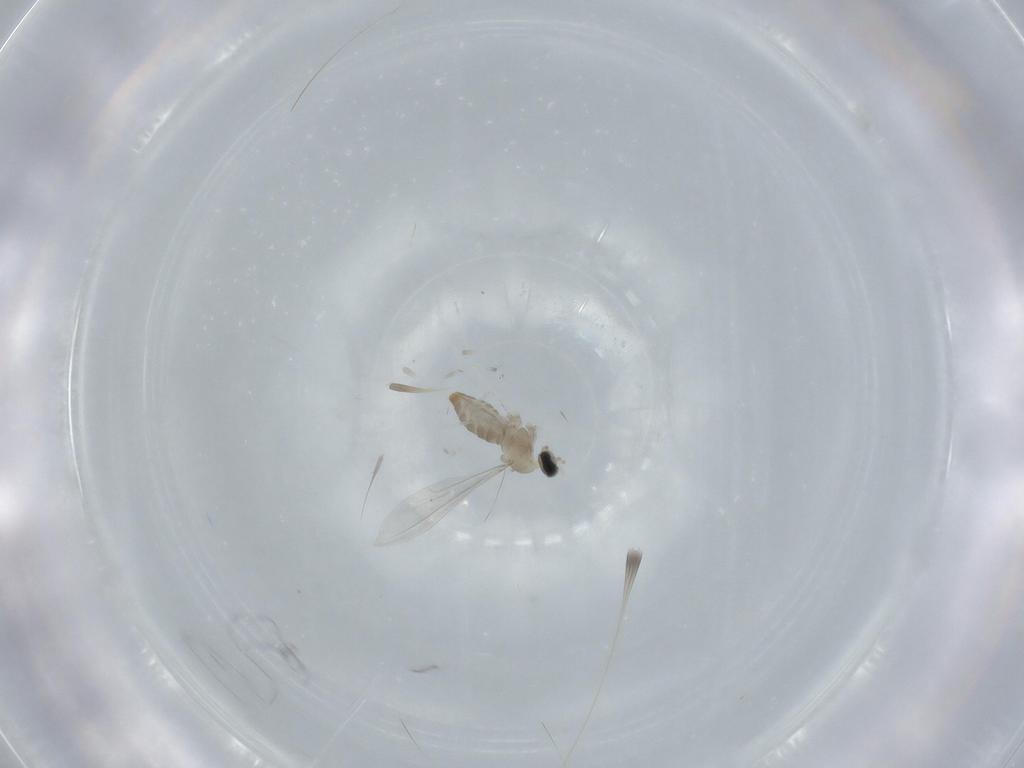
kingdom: Animalia
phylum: Arthropoda
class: Insecta
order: Diptera
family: Cecidomyiidae
